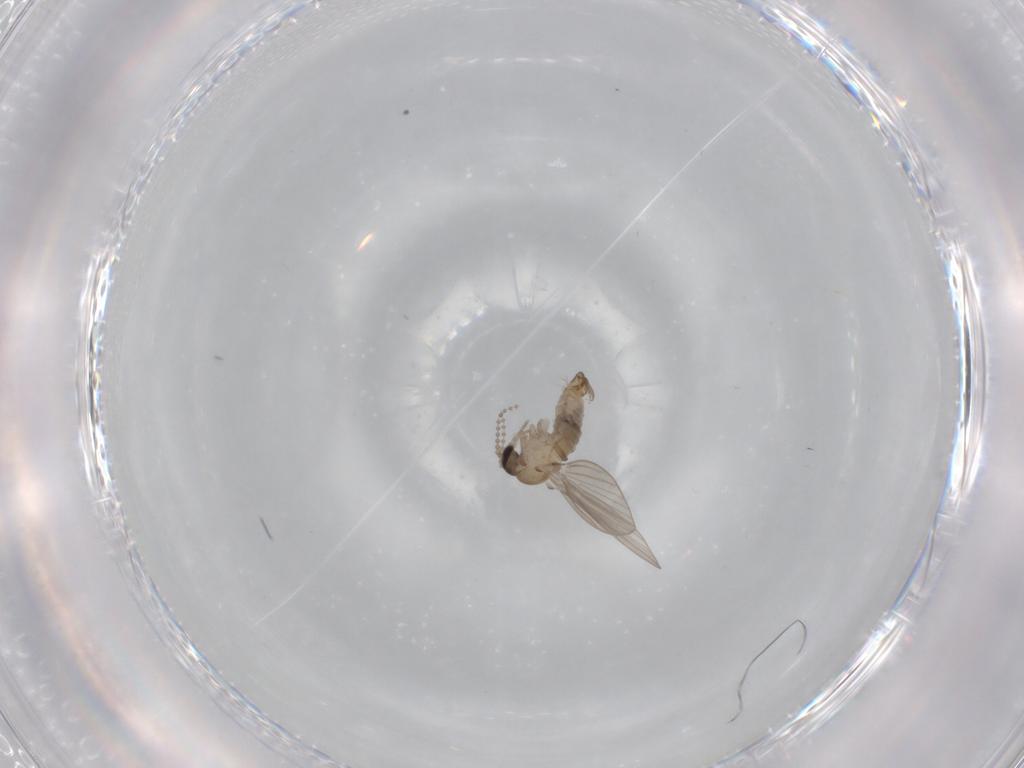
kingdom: Animalia
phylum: Arthropoda
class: Insecta
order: Diptera
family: Psychodidae
